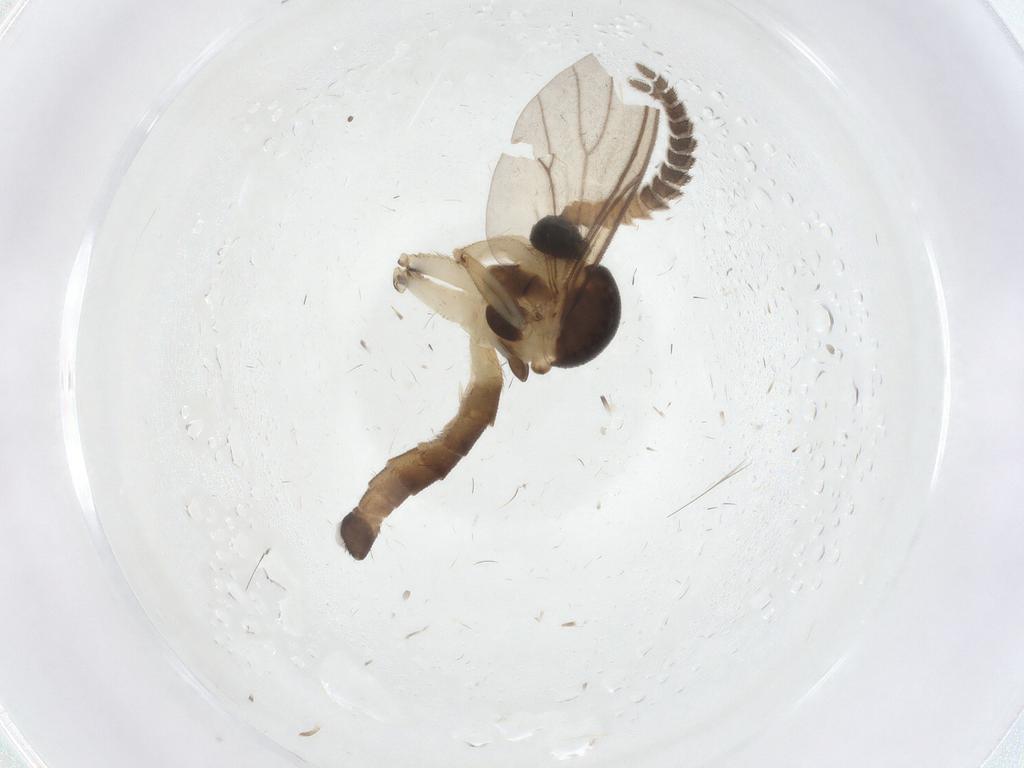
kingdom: Animalia
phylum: Arthropoda
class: Insecta
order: Diptera
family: Mycetophilidae
